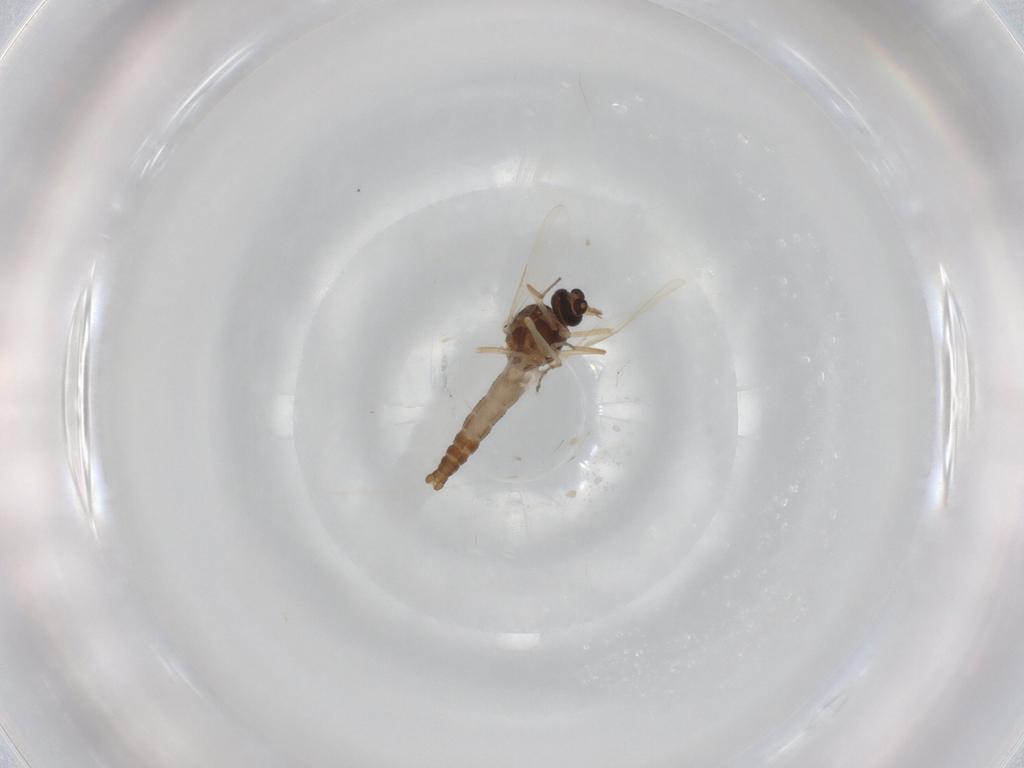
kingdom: Animalia
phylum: Arthropoda
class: Insecta
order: Diptera
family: Ceratopogonidae
